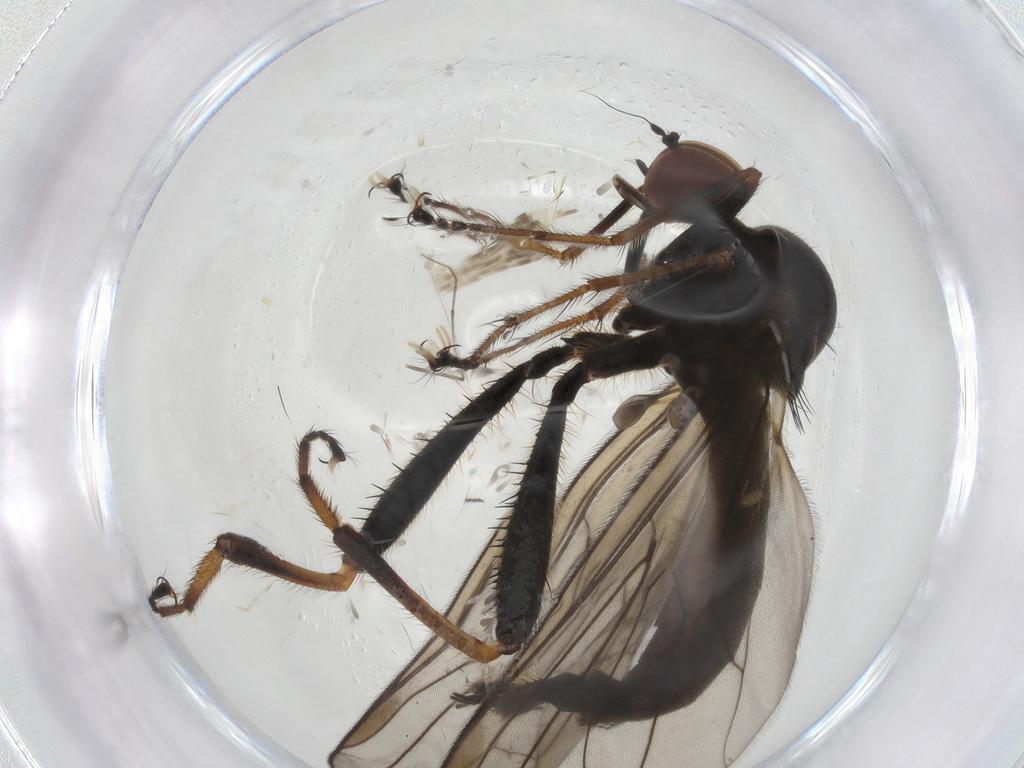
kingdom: Animalia
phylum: Arthropoda
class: Insecta
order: Diptera
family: Hybotidae
